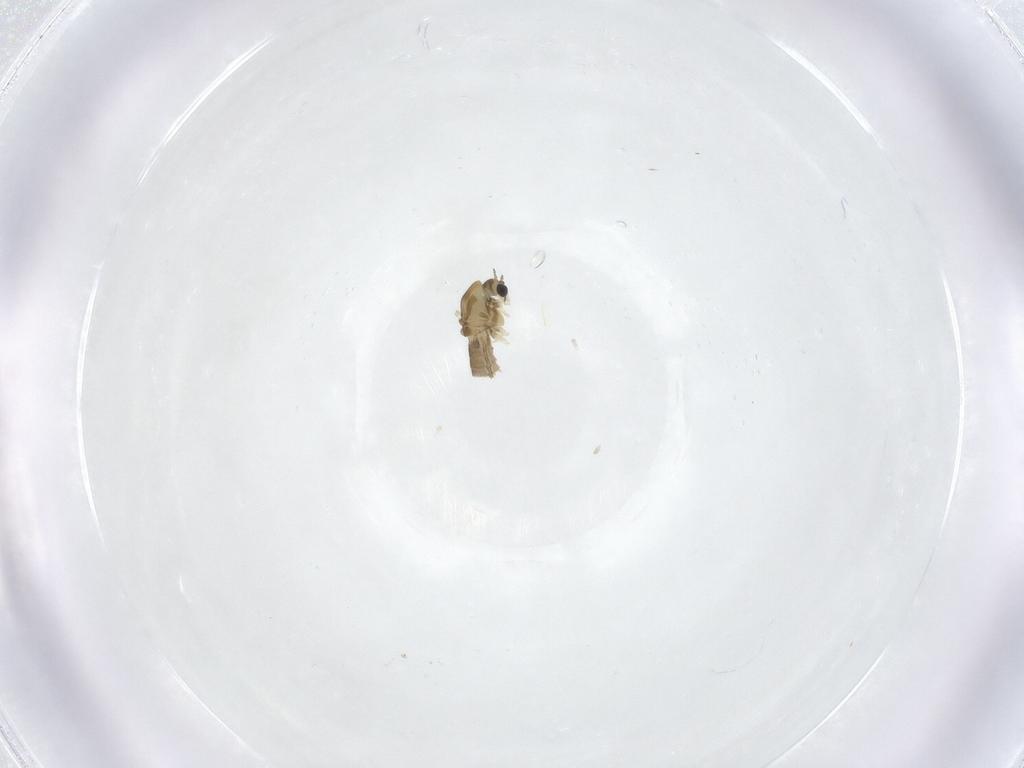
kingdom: Animalia
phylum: Arthropoda
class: Insecta
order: Diptera
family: Chironomidae
